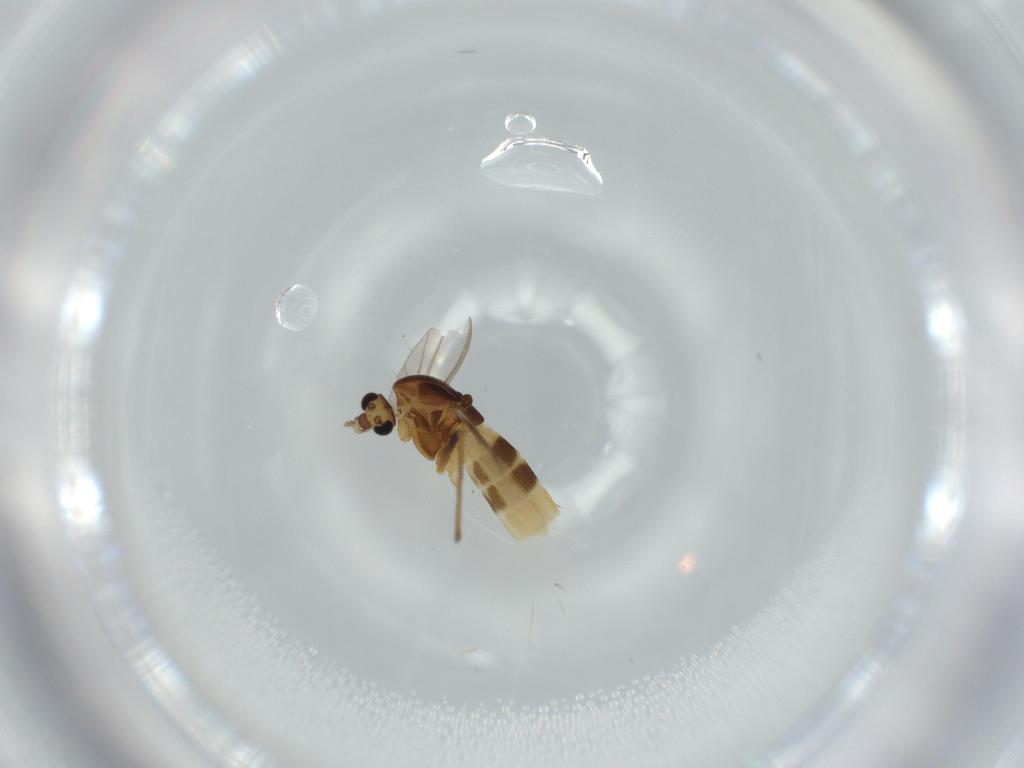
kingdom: Animalia
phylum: Arthropoda
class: Insecta
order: Diptera
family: Chironomidae
